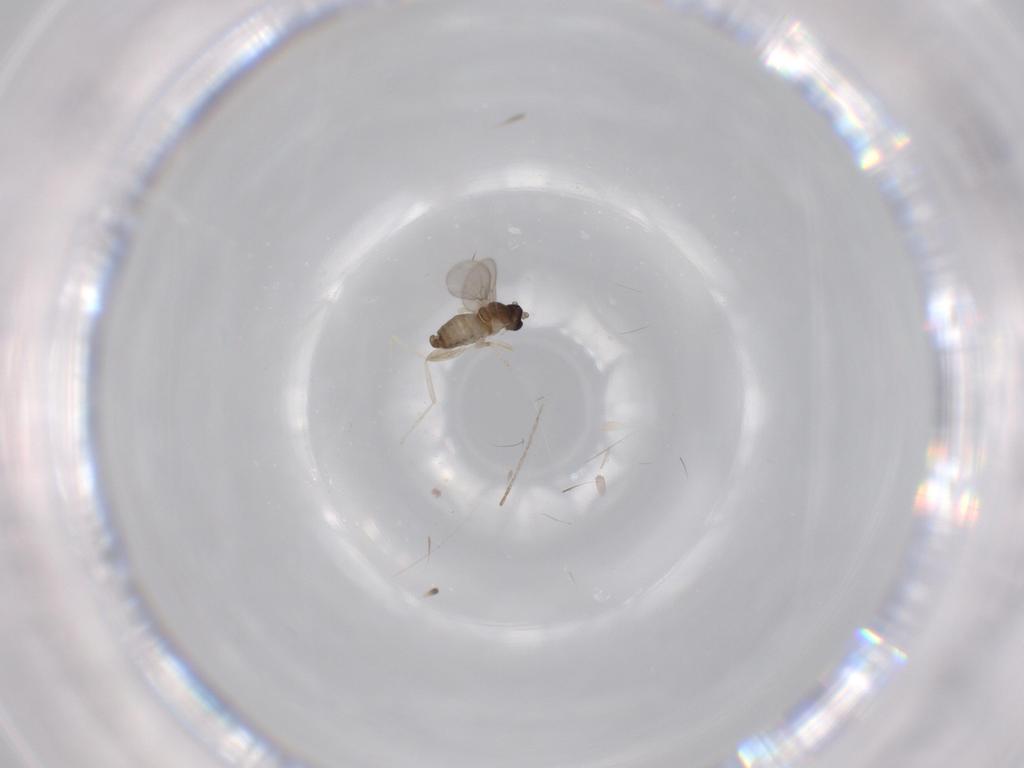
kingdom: Animalia
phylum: Arthropoda
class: Insecta
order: Diptera
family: Cecidomyiidae
